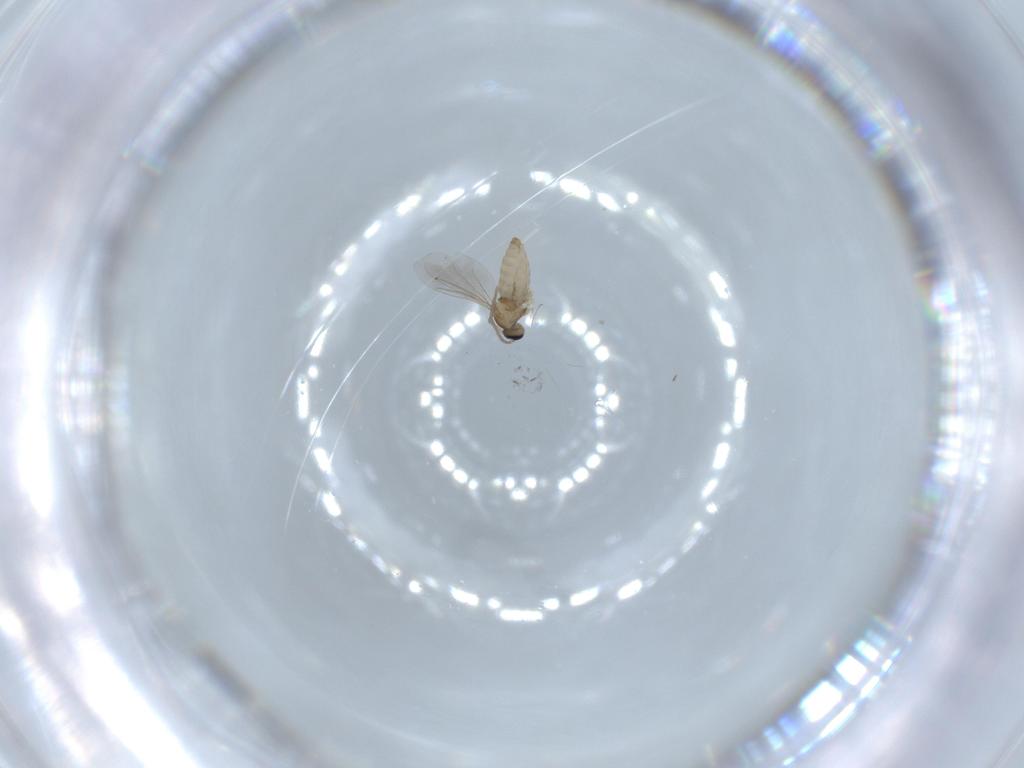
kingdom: Animalia
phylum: Arthropoda
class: Insecta
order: Diptera
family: Cecidomyiidae
